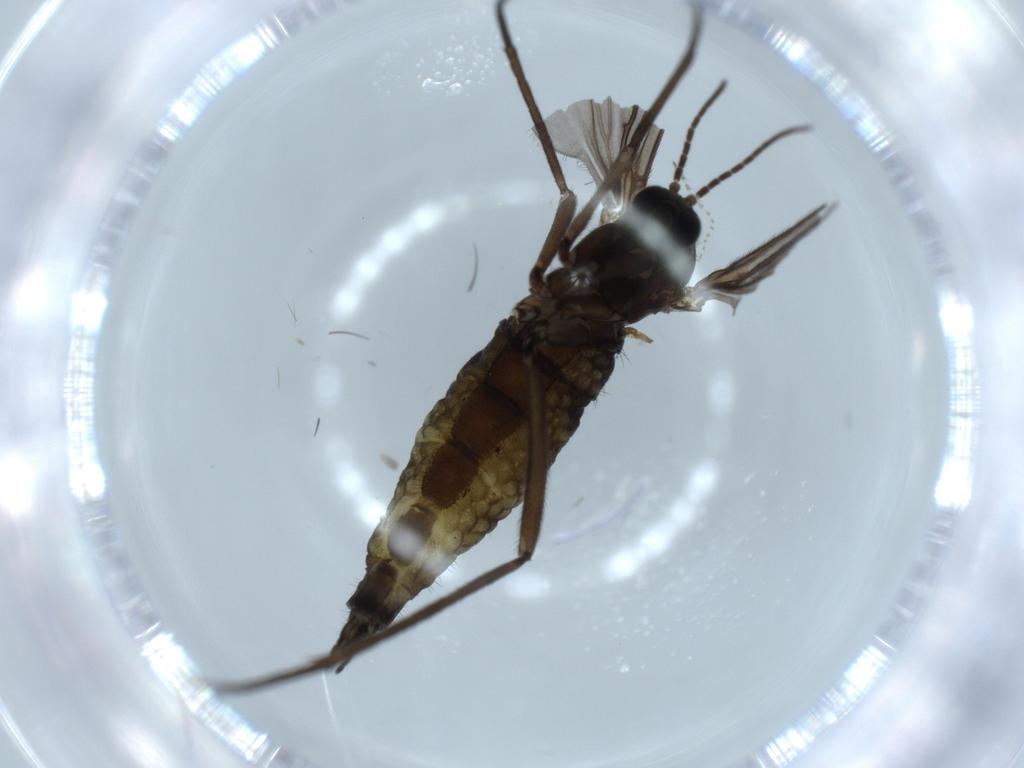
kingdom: Animalia
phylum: Arthropoda
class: Insecta
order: Diptera
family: Sciaridae
